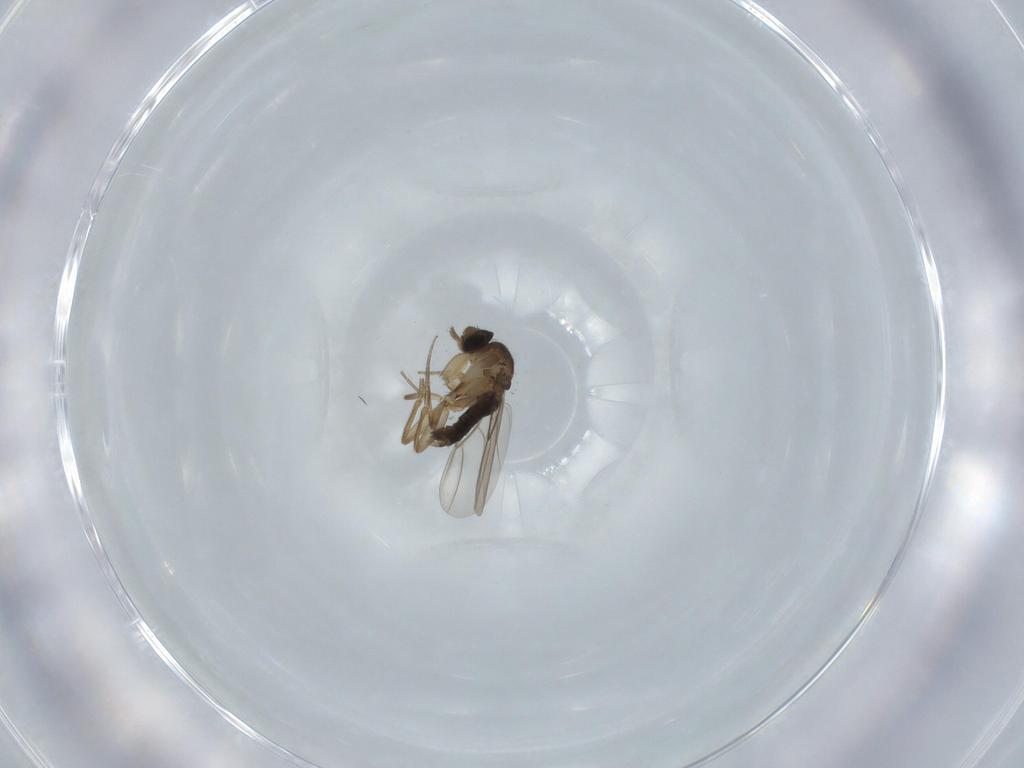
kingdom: Animalia
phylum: Arthropoda
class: Insecta
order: Diptera
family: Phoridae
